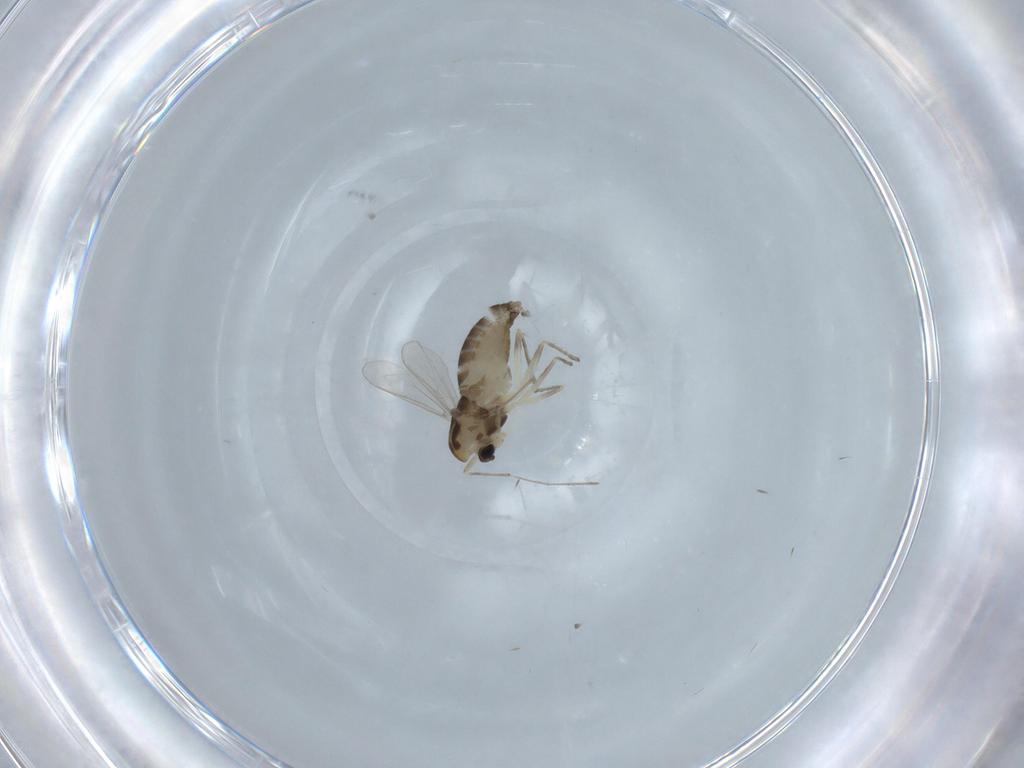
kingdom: Animalia
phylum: Arthropoda
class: Insecta
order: Diptera
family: Chironomidae
